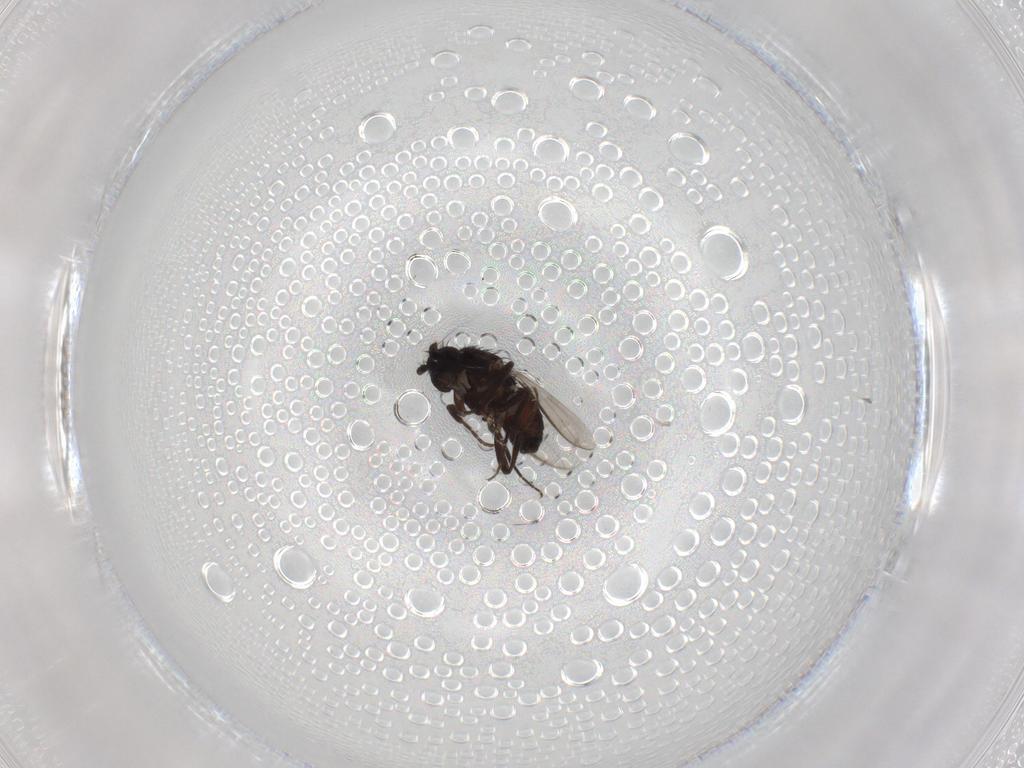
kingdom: Animalia
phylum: Arthropoda
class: Insecta
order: Diptera
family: Sphaeroceridae
